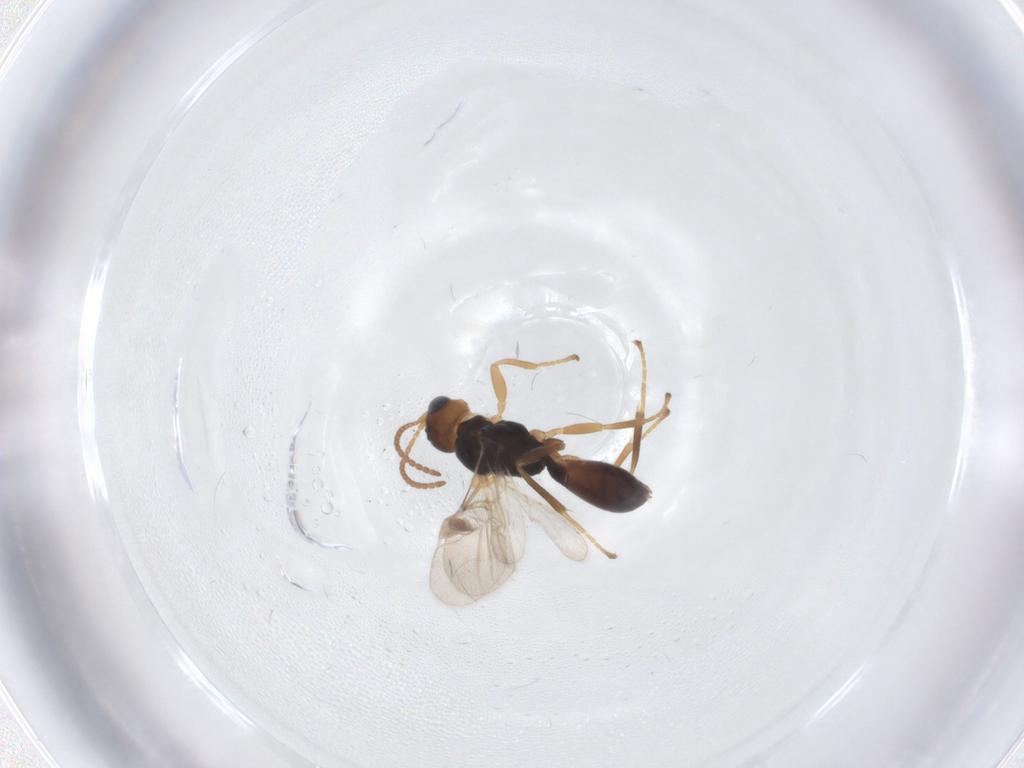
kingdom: Animalia
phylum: Arthropoda
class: Insecta
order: Hymenoptera
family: Braconidae
